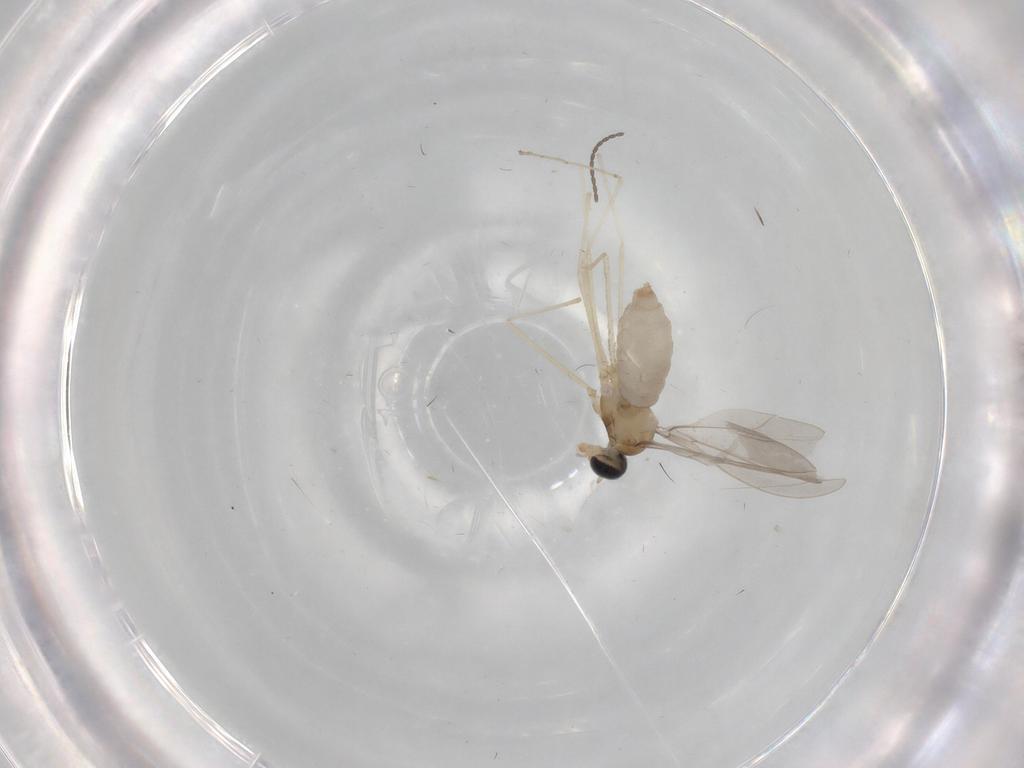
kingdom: Animalia
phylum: Arthropoda
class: Insecta
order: Diptera
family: Cecidomyiidae
